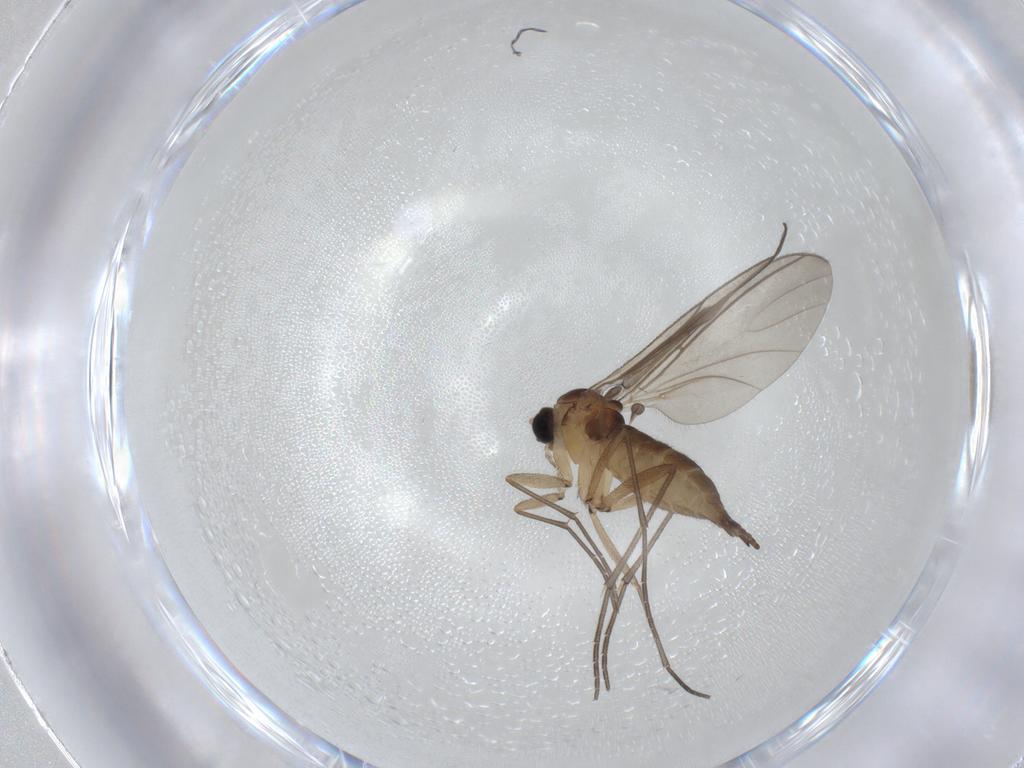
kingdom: Animalia
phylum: Arthropoda
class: Insecta
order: Diptera
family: Sciaridae
